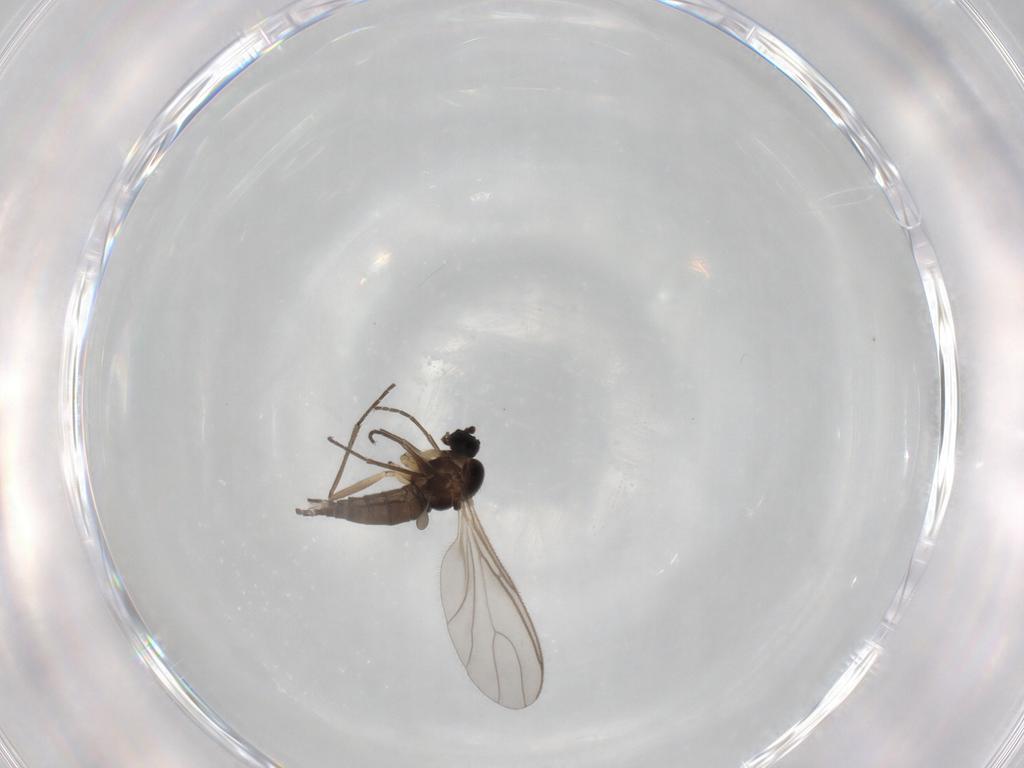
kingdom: Animalia
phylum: Arthropoda
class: Insecta
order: Diptera
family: Sciaridae
